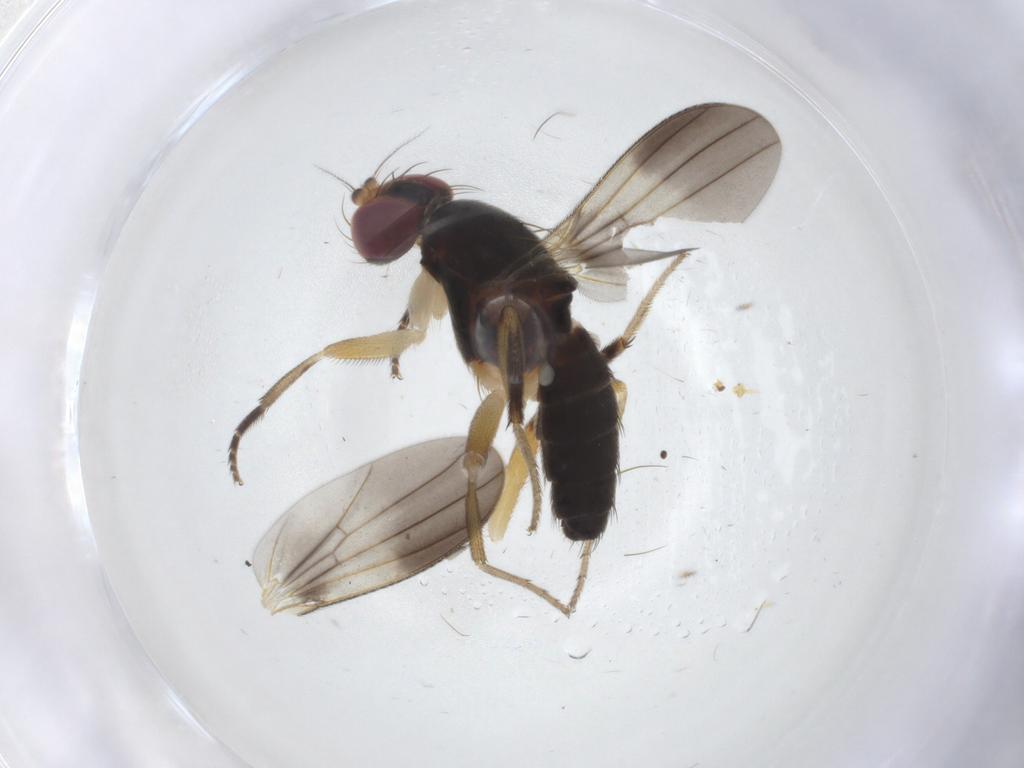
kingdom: Animalia
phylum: Arthropoda
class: Insecta
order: Diptera
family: Clusiidae
